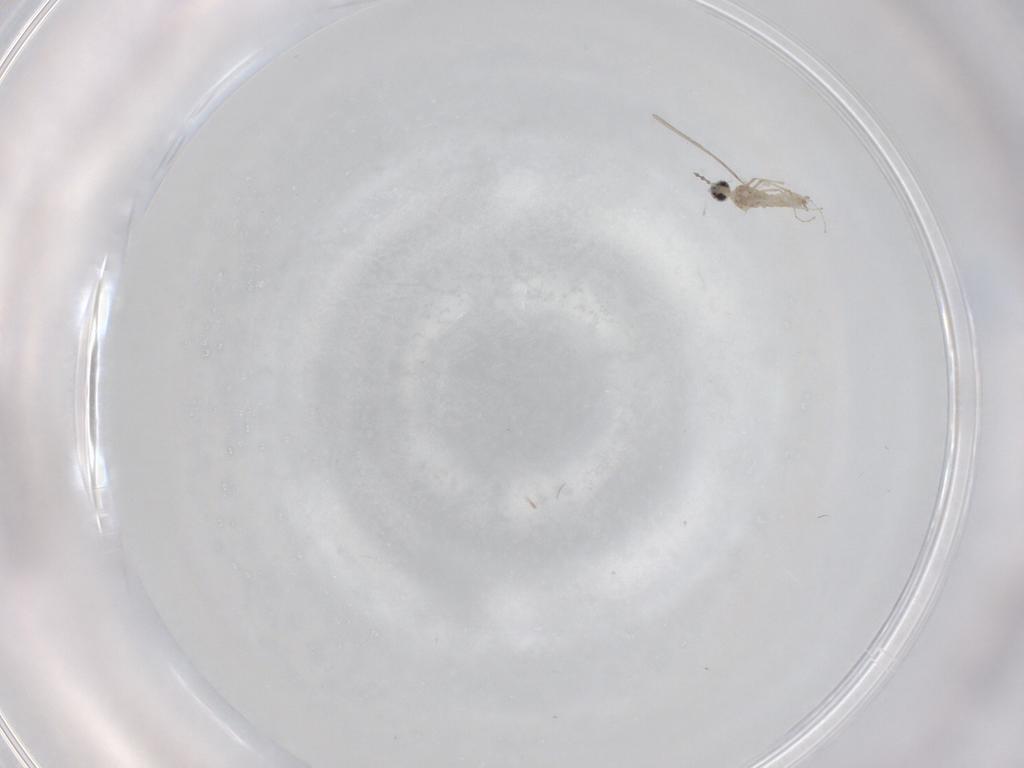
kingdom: Animalia
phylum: Arthropoda
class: Insecta
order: Diptera
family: Cecidomyiidae
